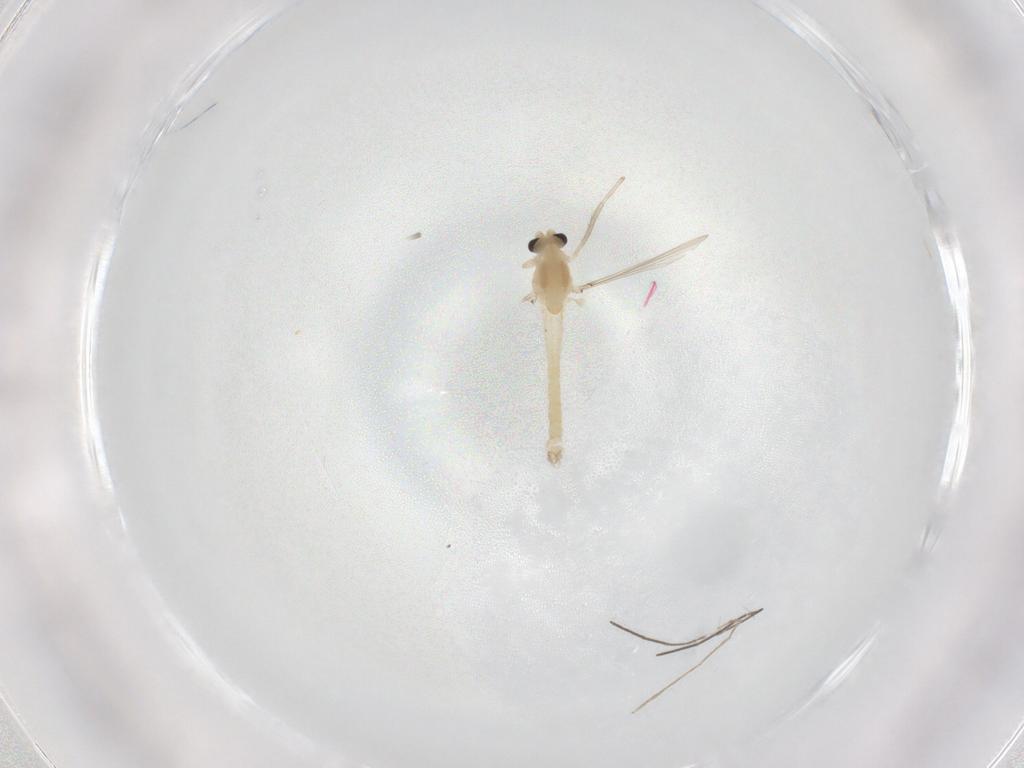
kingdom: Animalia
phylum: Arthropoda
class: Insecta
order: Diptera
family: Chironomidae
